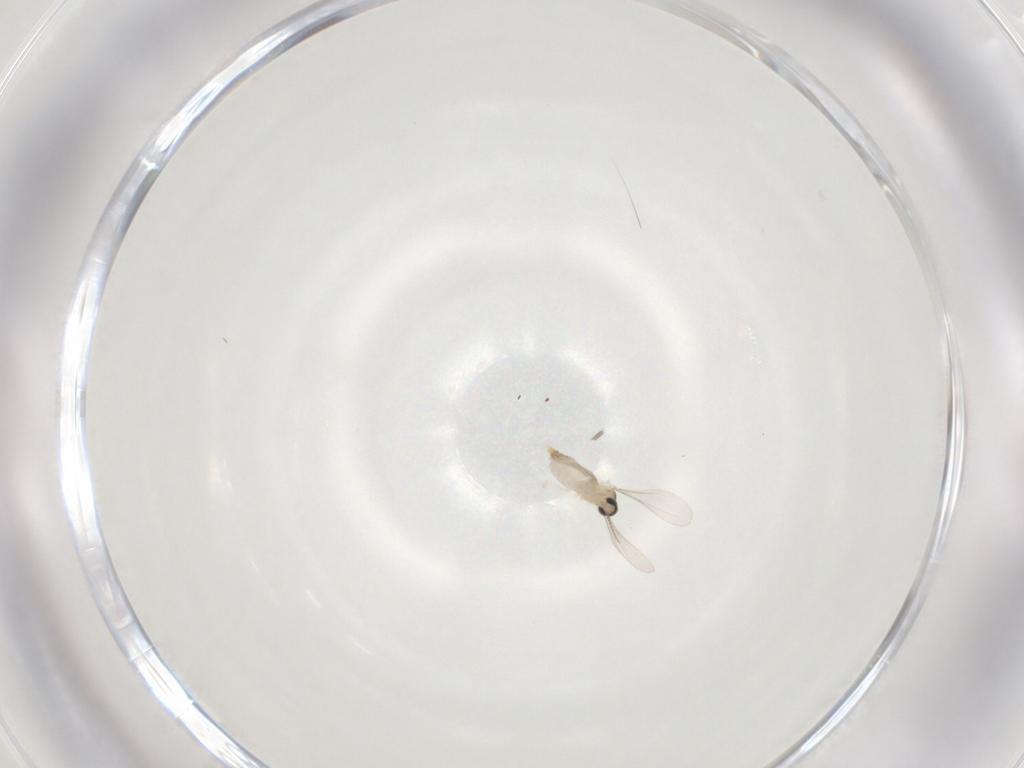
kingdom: Animalia
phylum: Arthropoda
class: Insecta
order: Diptera
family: Chironomidae
